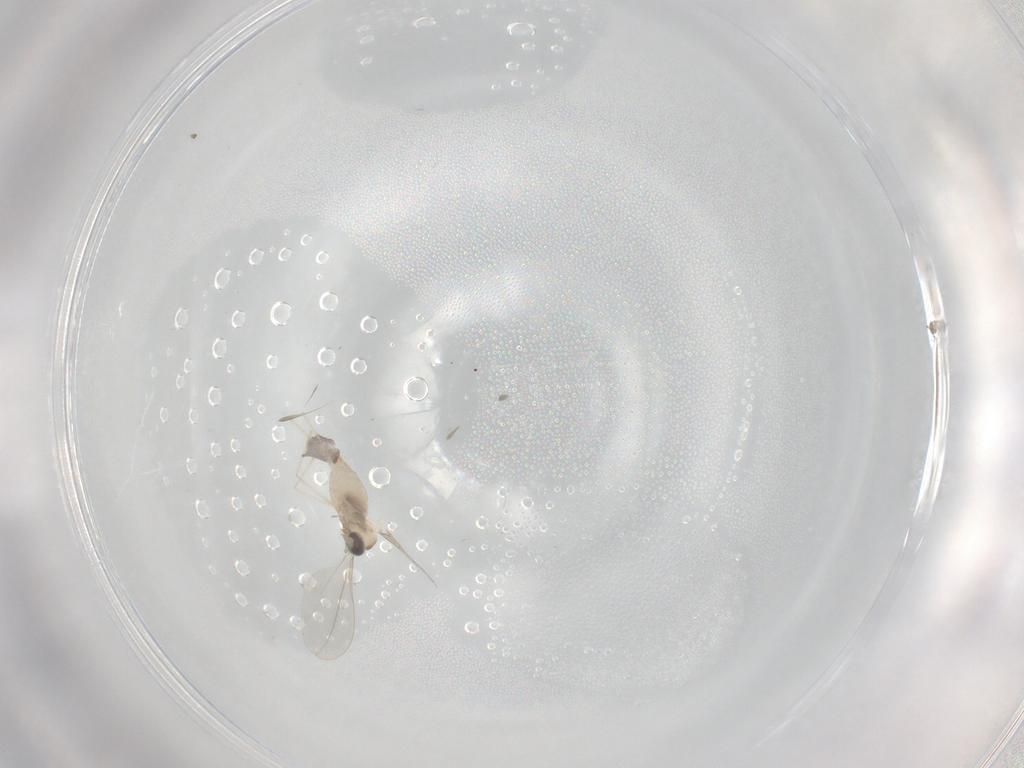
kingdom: Animalia
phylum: Arthropoda
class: Insecta
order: Diptera
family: Cecidomyiidae
